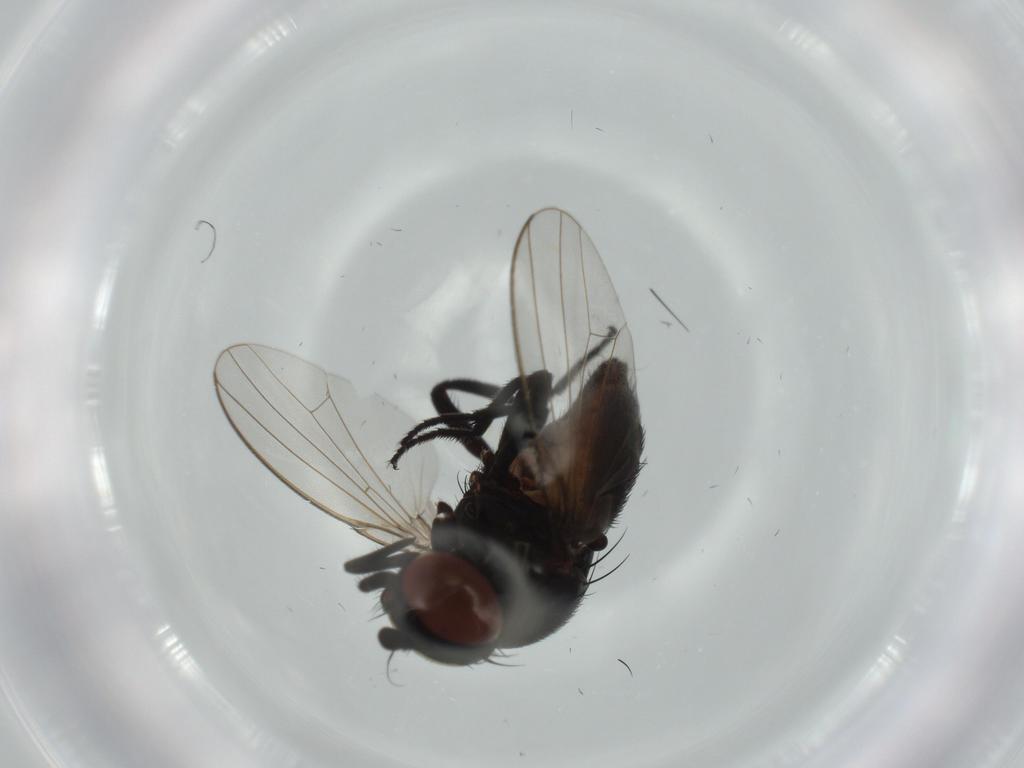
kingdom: Animalia
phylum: Arthropoda
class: Insecta
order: Diptera
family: Milichiidae
